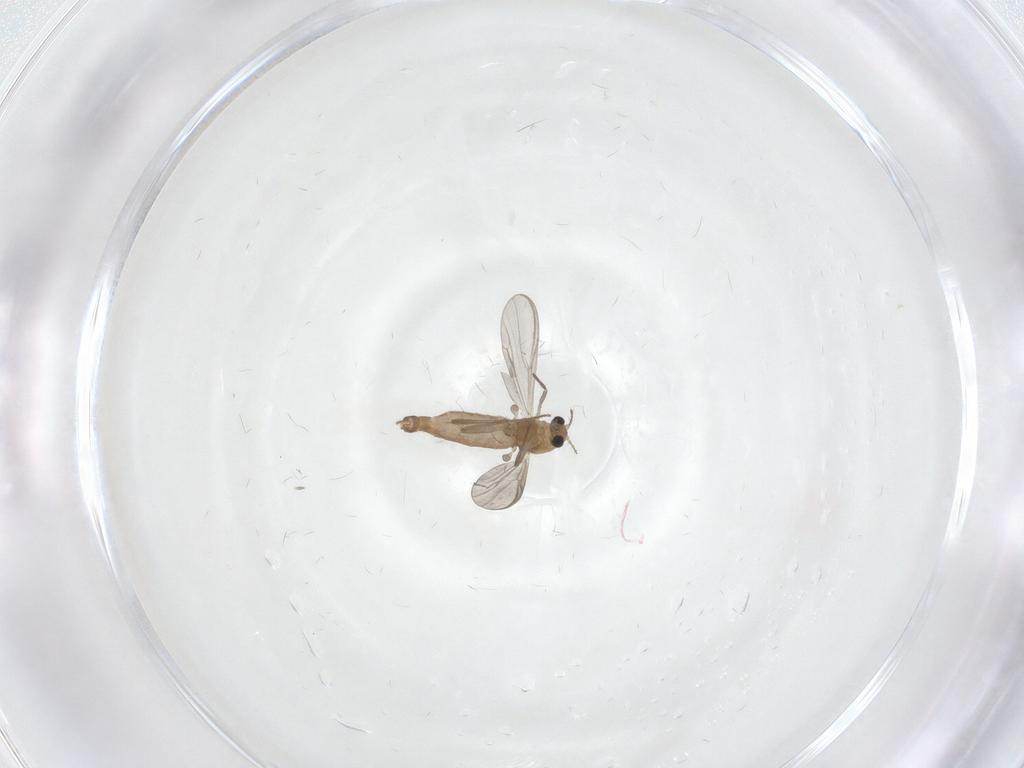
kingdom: Animalia
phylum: Arthropoda
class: Insecta
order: Diptera
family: Chironomidae
